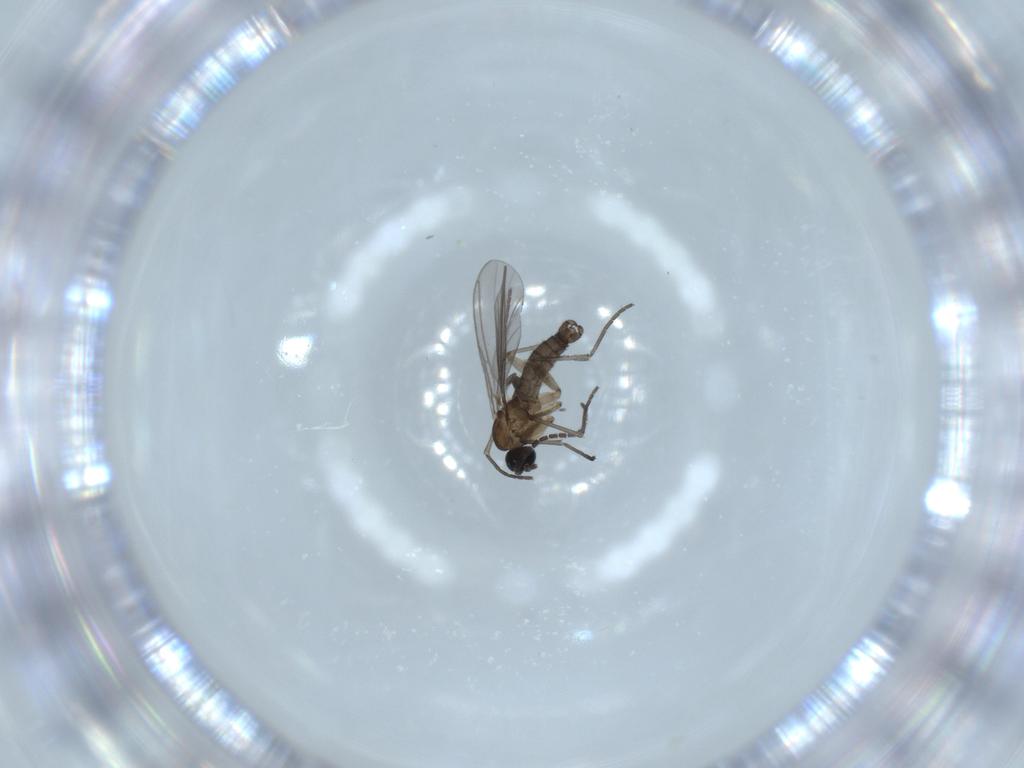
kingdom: Animalia
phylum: Arthropoda
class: Insecta
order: Diptera
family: Sciaridae
